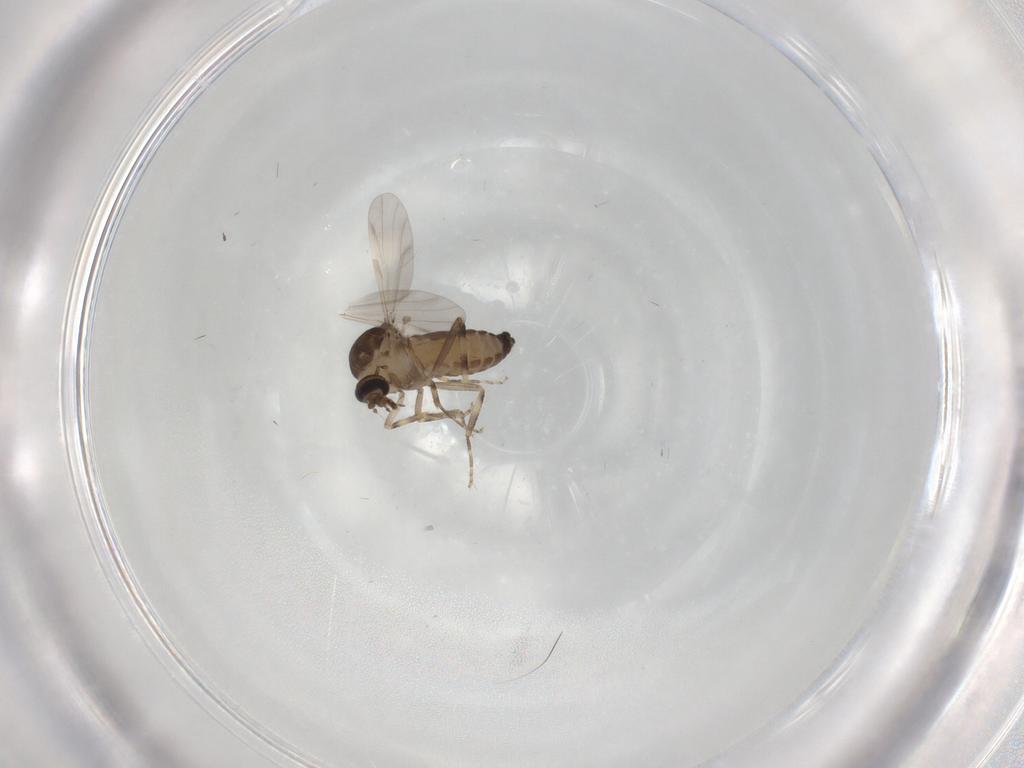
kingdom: Animalia
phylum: Arthropoda
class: Insecta
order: Diptera
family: Ceratopogonidae
